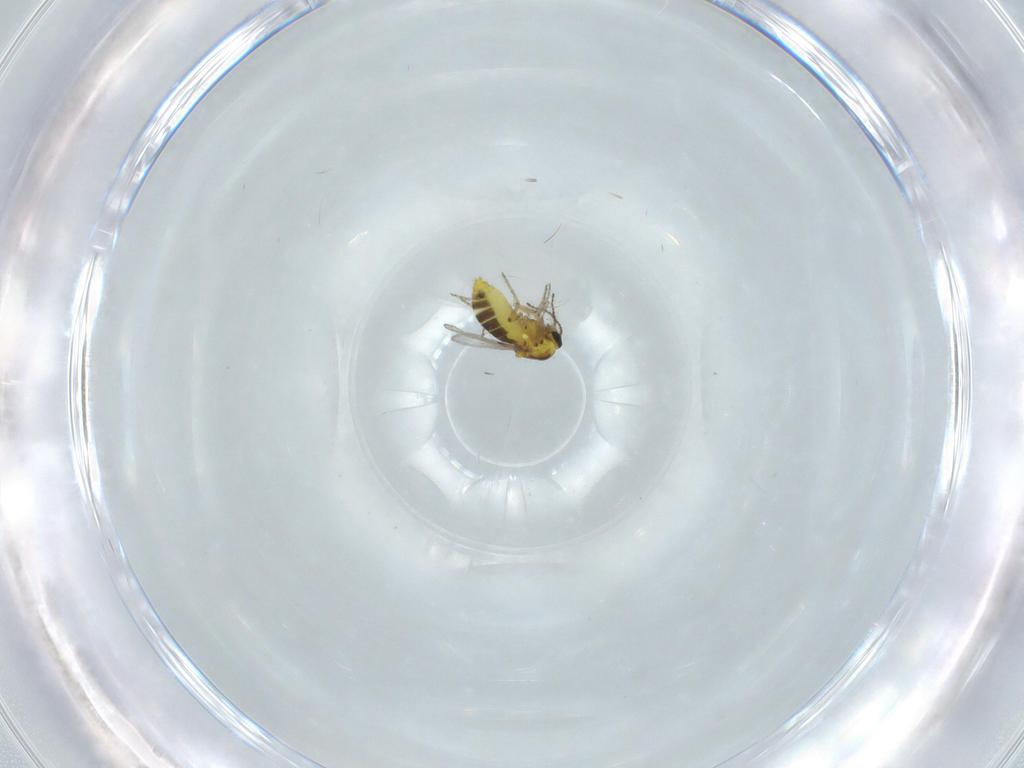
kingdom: Animalia
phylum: Arthropoda
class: Insecta
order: Diptera
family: Ceratopogonidae
